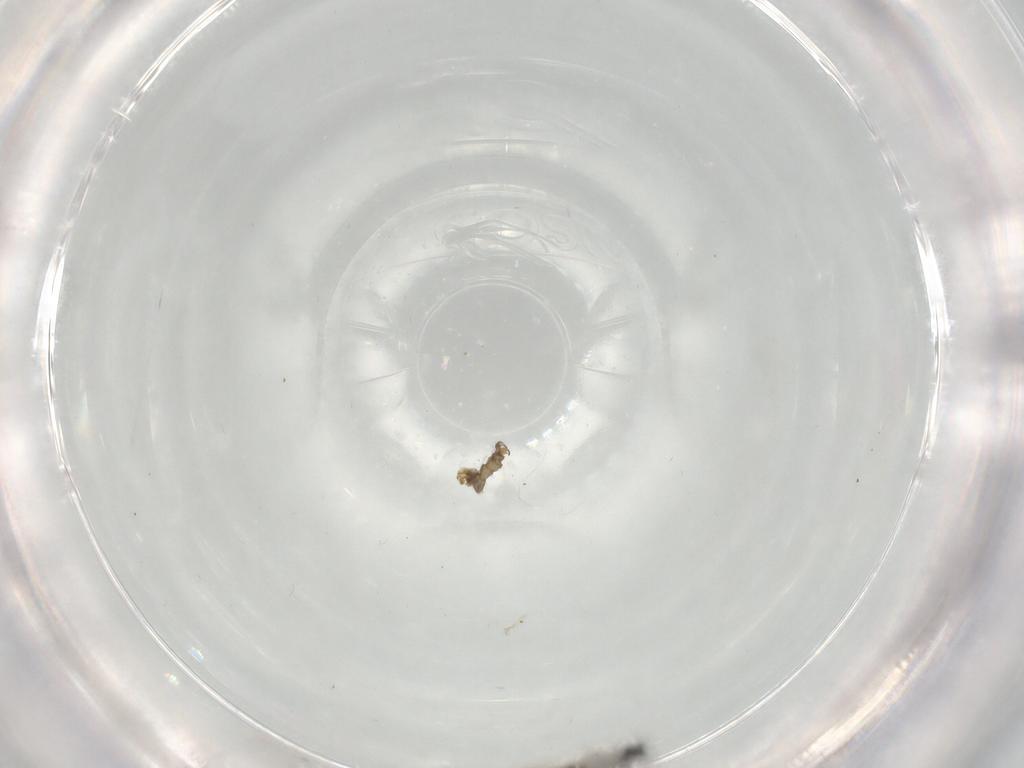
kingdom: Animalia
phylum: Arthropoda
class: Insecta
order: Diptera
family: Cecidomyiidae
